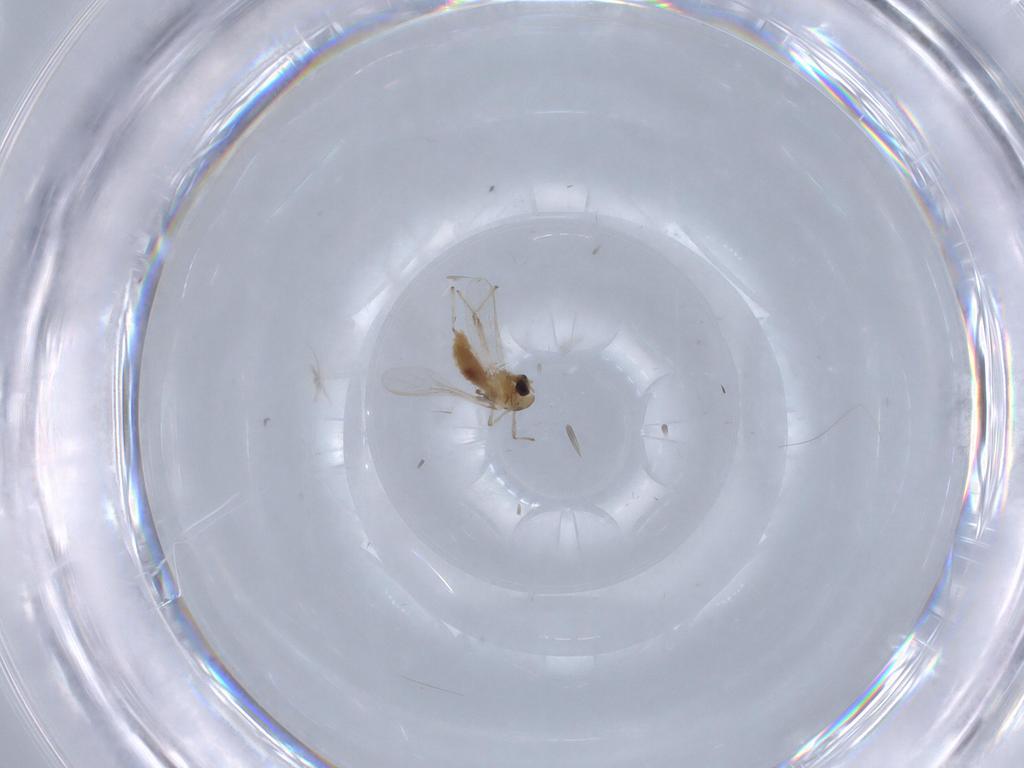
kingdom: Animalia
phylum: Arthropoda
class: Insecta
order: Diptera
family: Chironomidae
